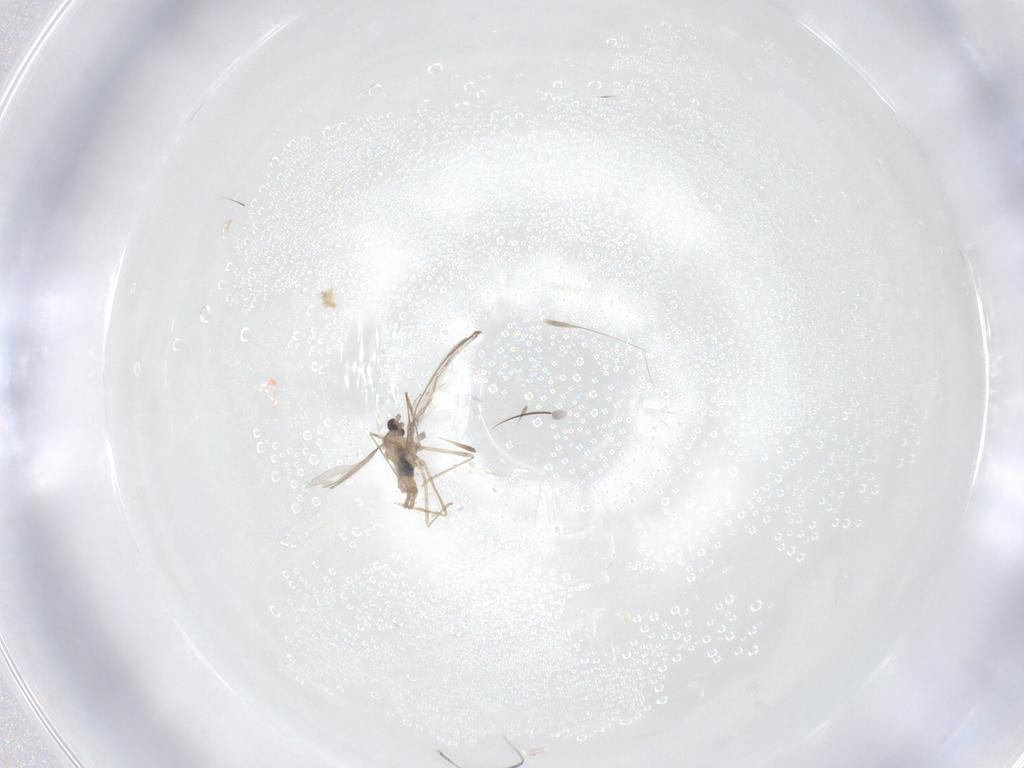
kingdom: Animalia
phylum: Arthropoda
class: Insecta
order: Diptera
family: Cecidomyiidae
